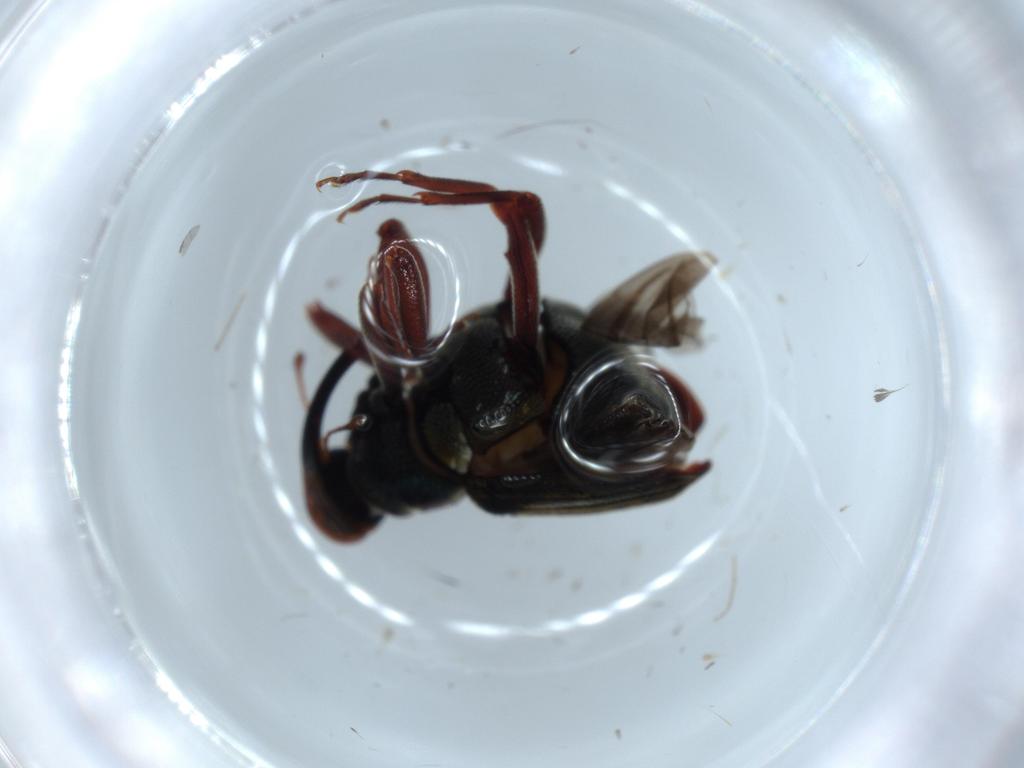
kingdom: Animalia
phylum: Arthropoda
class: Insecta
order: Coleoptera
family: Curculionidae
